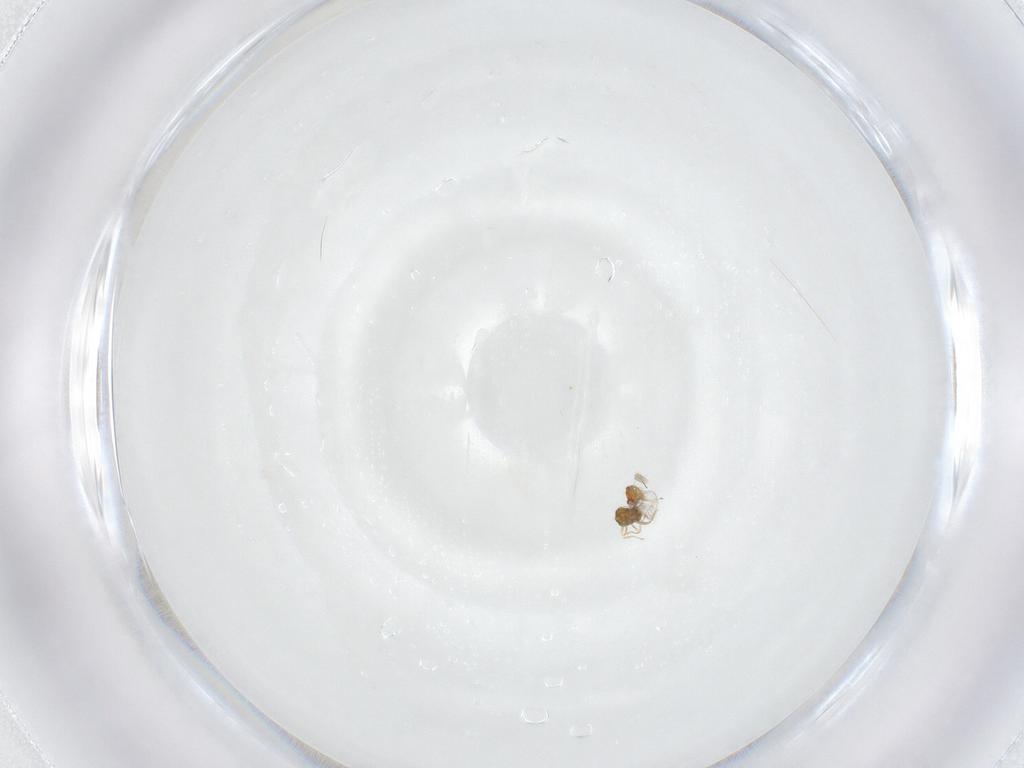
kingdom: Animalia
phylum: Arthropoda
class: Insecta
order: Hymenoptera
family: Trichogrammatidae
